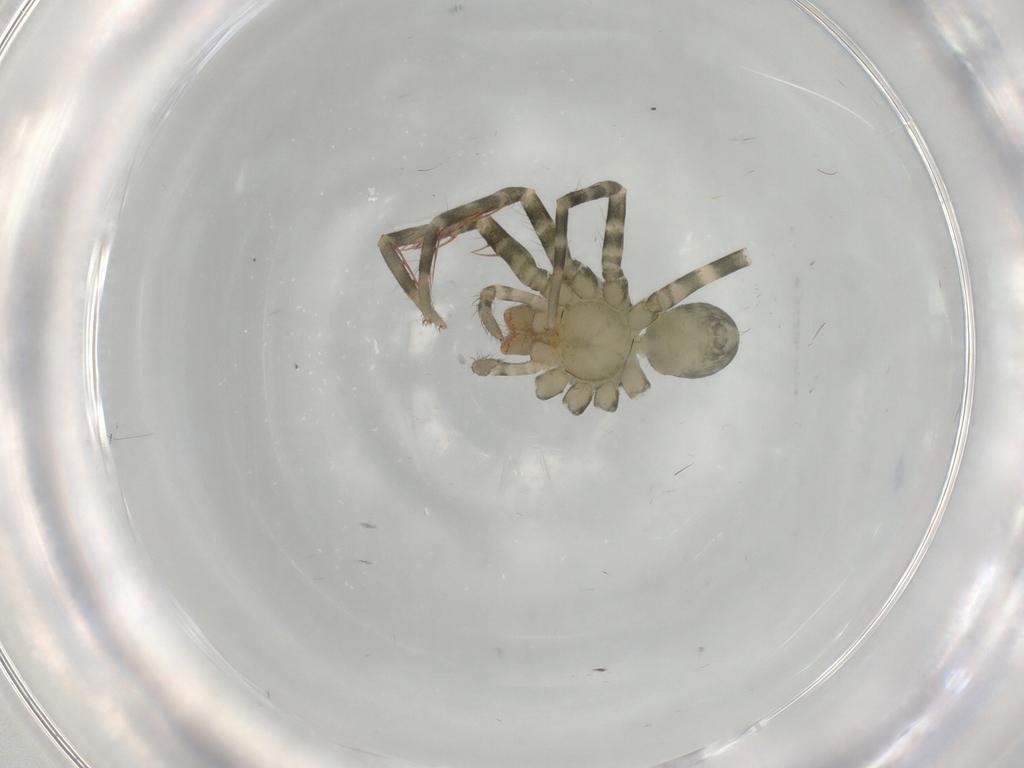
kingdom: Animalia
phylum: Arthropoda
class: Arachnida
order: Araneae
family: Ctenidae
